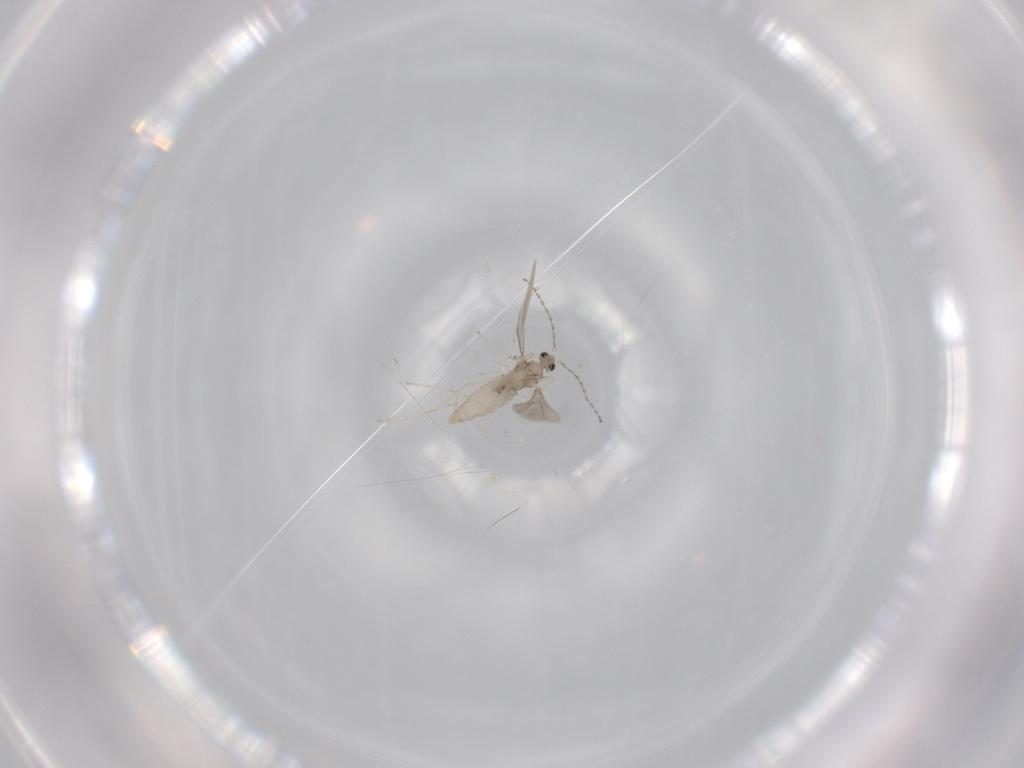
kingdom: Animalia
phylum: Arthropoda
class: Insecta
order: Diptera
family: Cecidomyiidae
